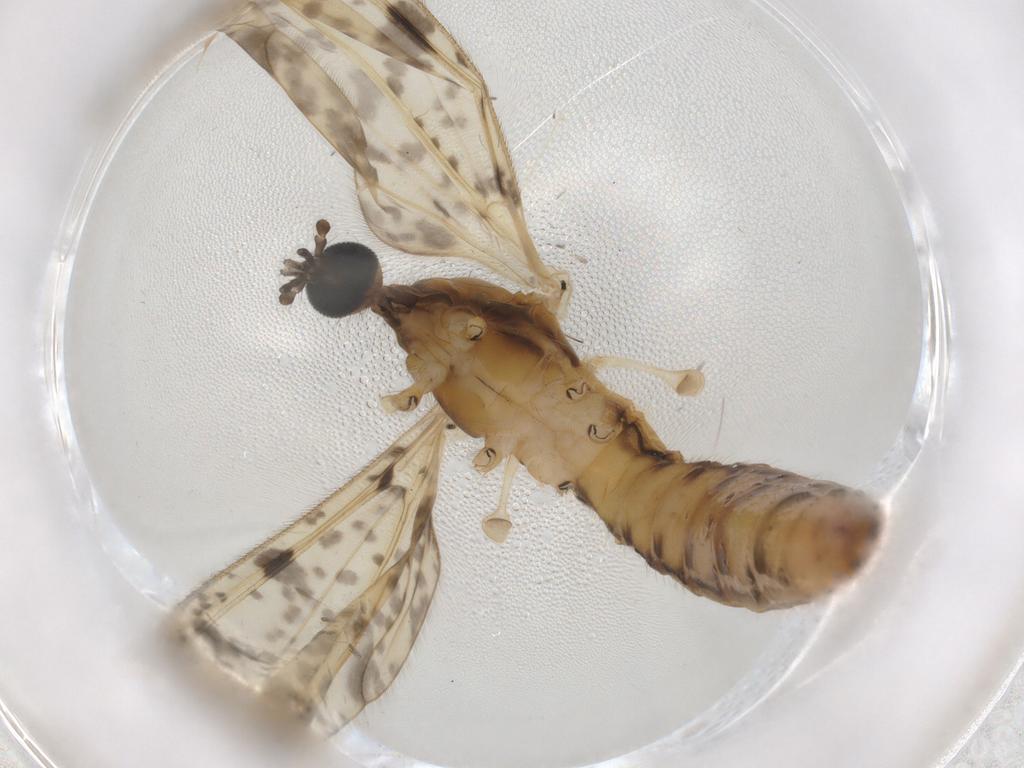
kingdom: Animalia
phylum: Arthropoda
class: Insecta
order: Diptera
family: Limoniidae
